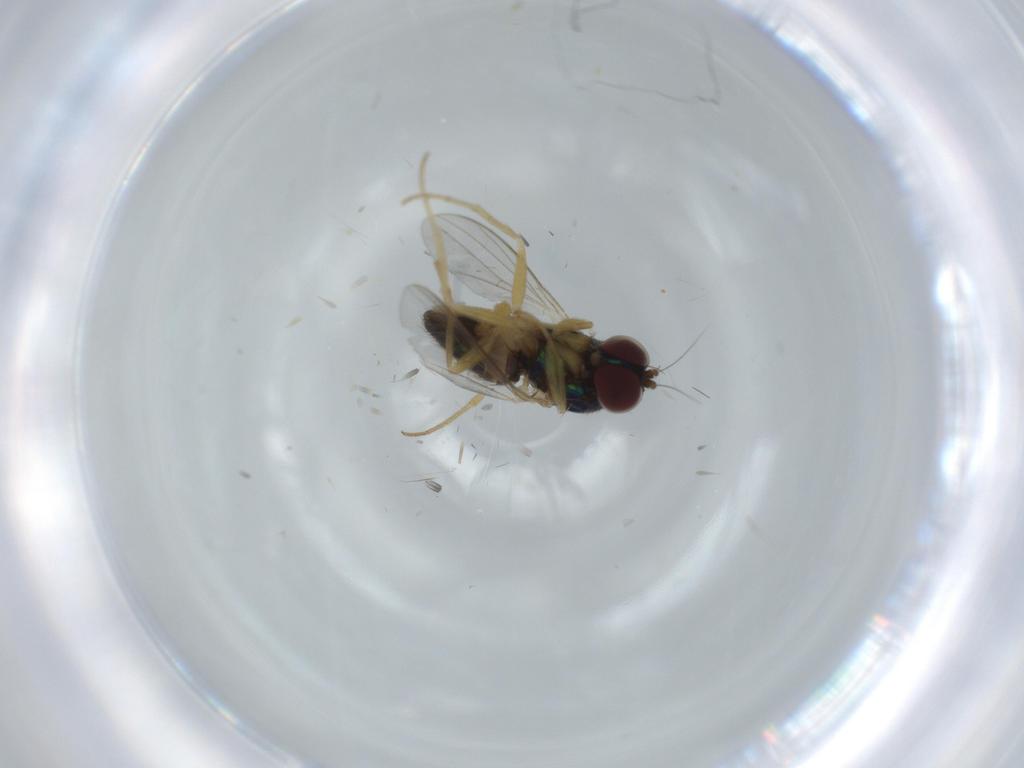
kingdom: Animalia
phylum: Arthropoda
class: Insecta
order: Diptera
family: Dolichopodidae
